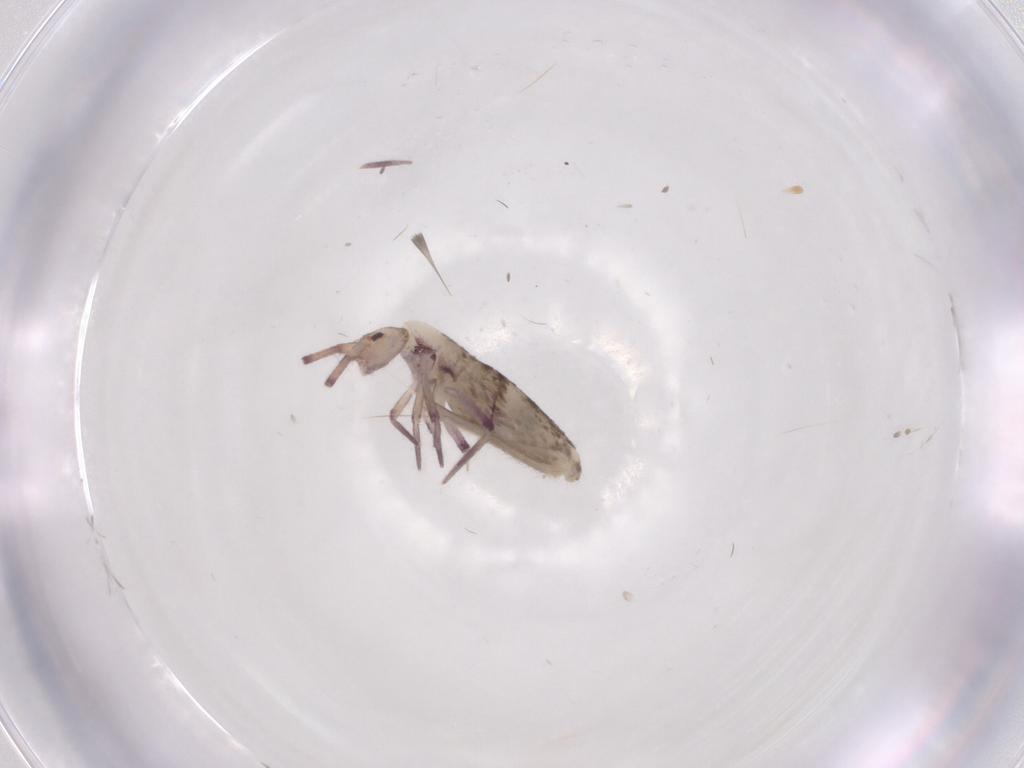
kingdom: Animalia
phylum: Arthropoda
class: Collembola
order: Entomobryomorpha
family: Entomobryidae
